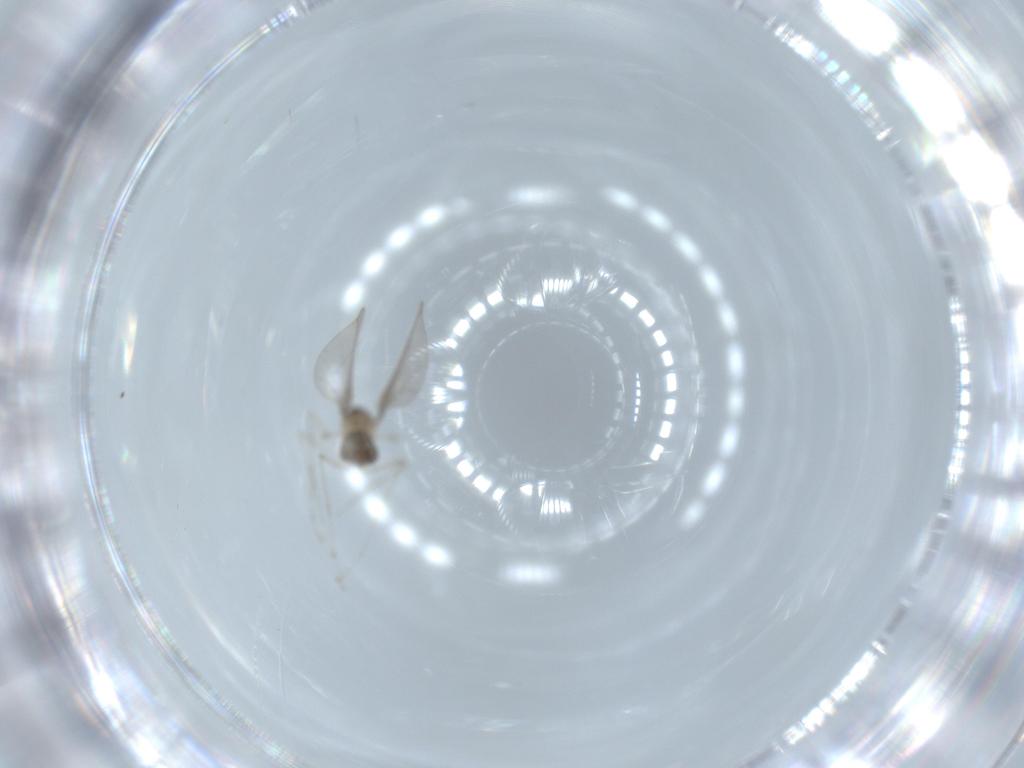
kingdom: Animalia
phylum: Arthropoda
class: Insecta
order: Diptera
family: Cecidomyiidae
